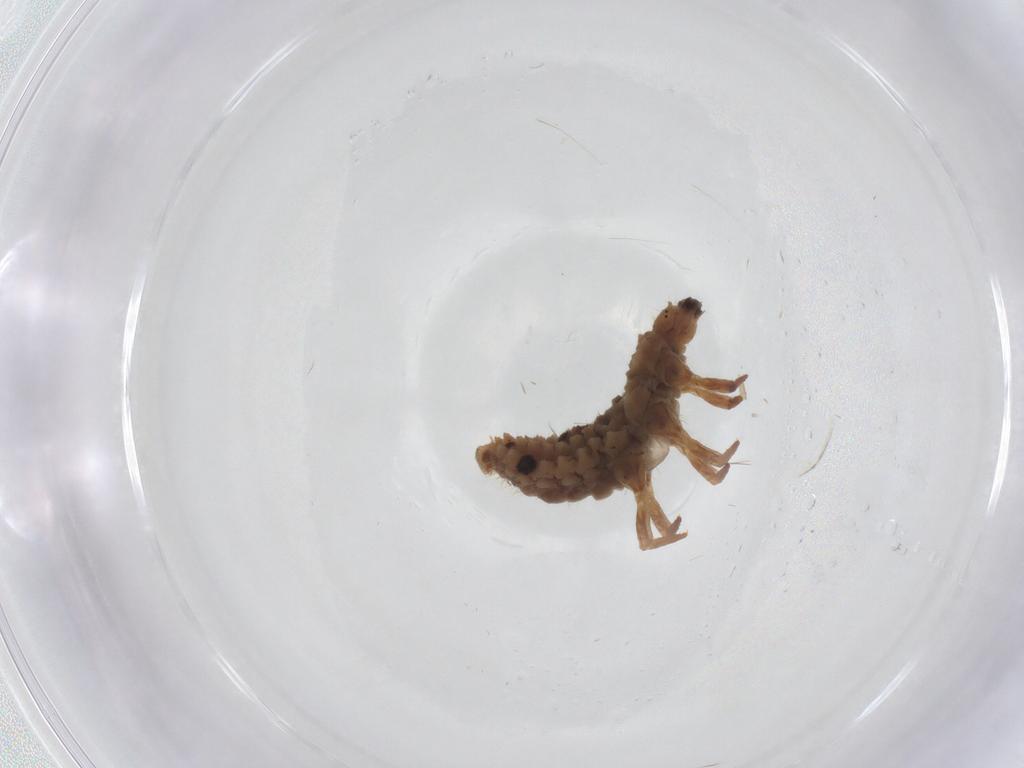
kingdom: Animalia
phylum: Arthropoda
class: Insecta
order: Coleoptera
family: Coccinellidae
